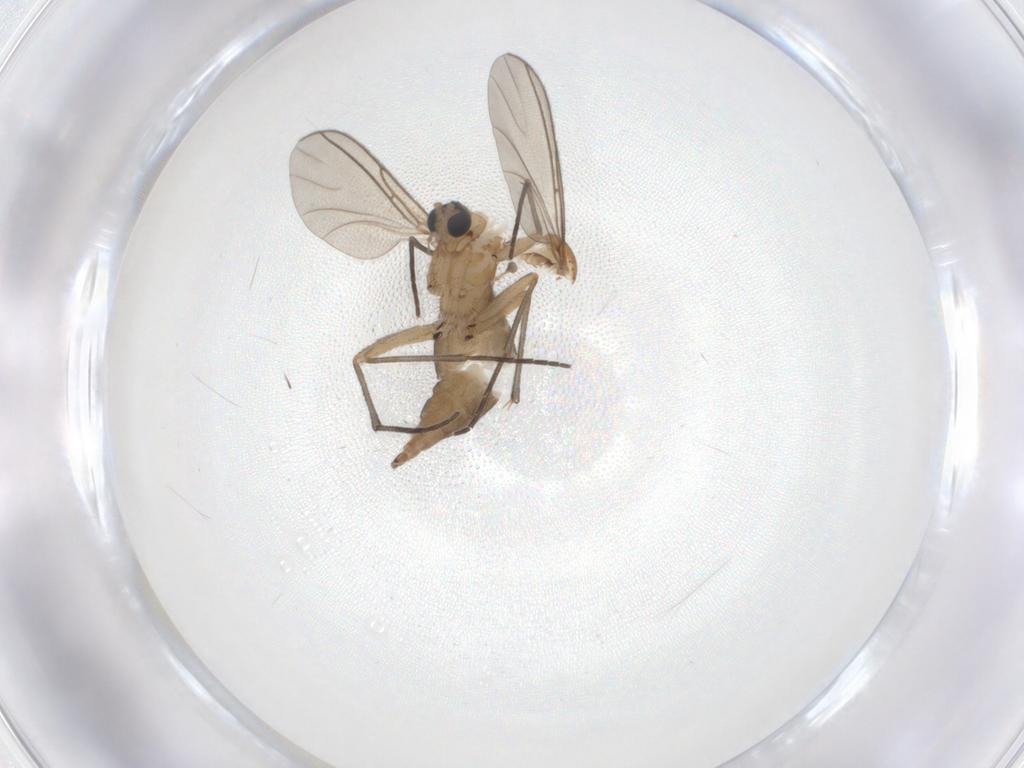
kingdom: Animalia
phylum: Arthropoda
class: Insecta
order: Diptera
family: Sciaridae
